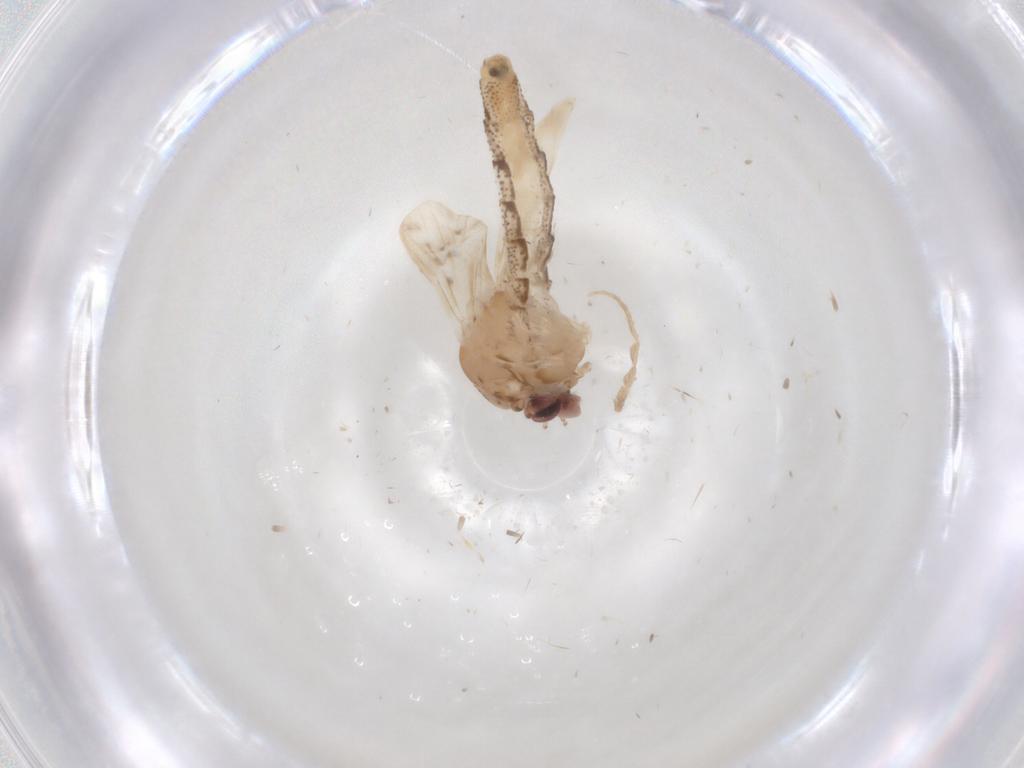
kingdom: Animalia
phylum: Arthropoda
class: Insecta
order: Diptera
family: Chaoboridae
